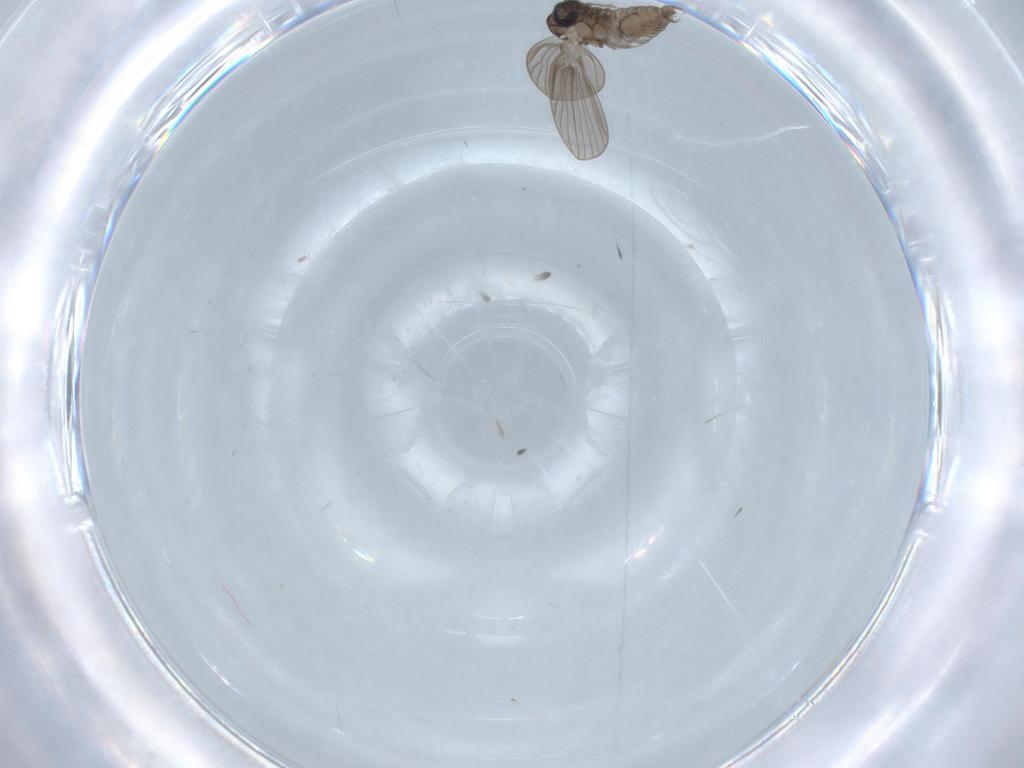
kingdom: Animalia
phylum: Arthropoda
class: Insecta
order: Diptera
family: Psychodidae
